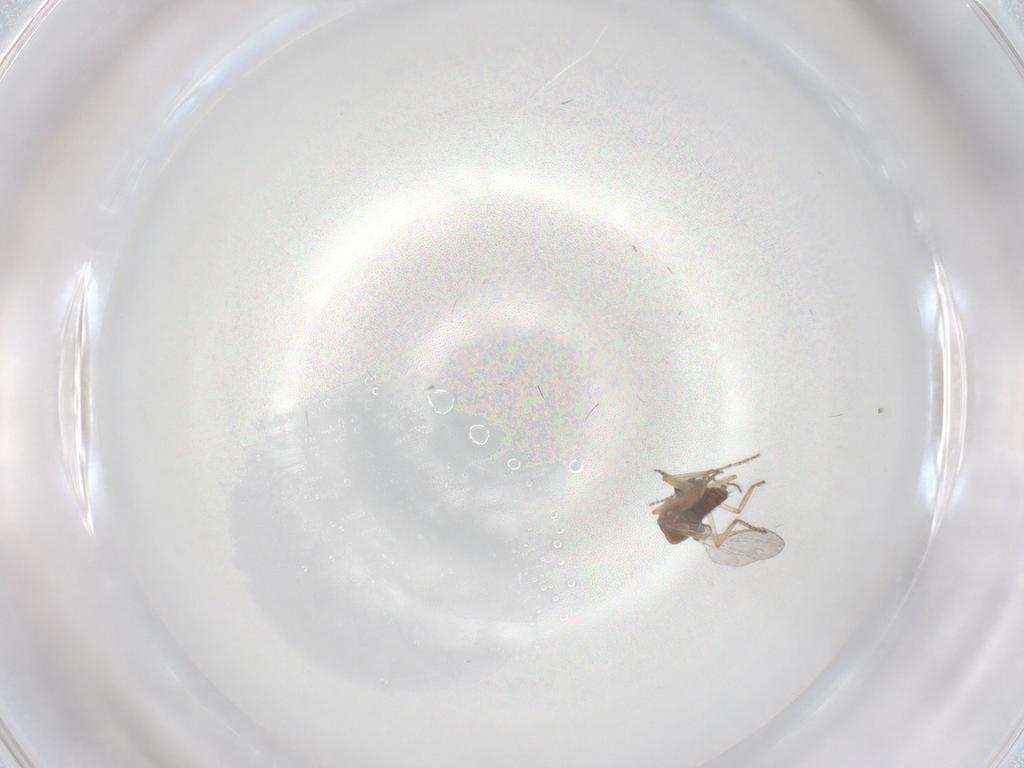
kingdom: Animalia
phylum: Arthropoda
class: Insecta
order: Diptera
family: Ceratopogonidae
